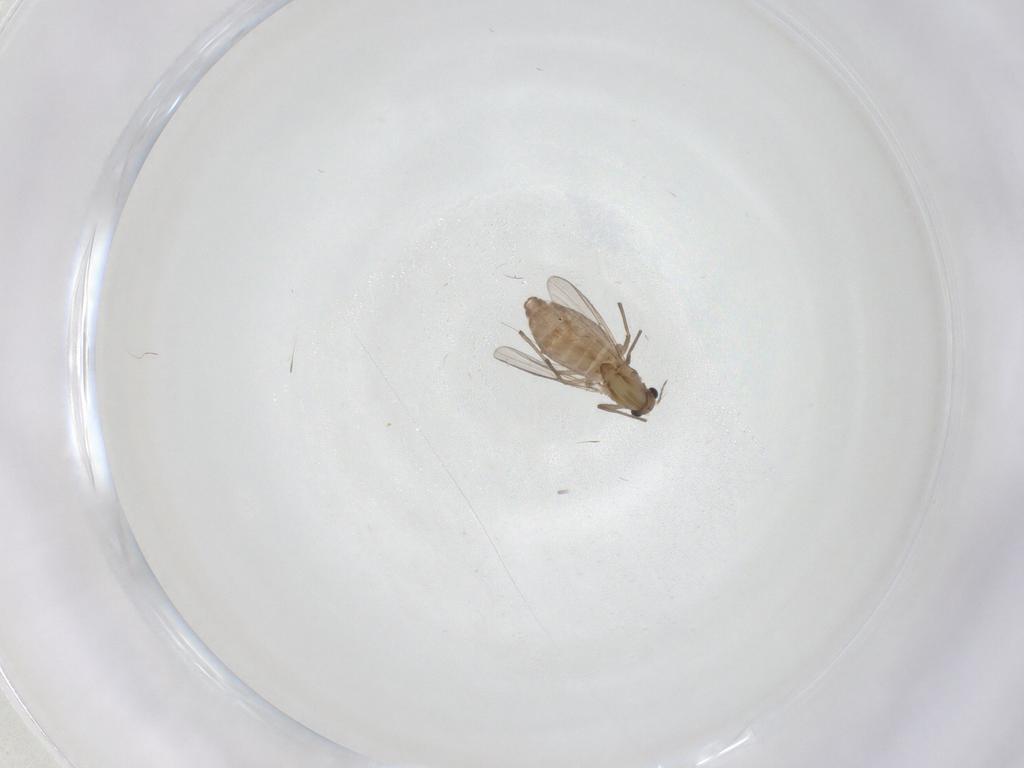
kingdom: Animalia
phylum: Arthropoda
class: Insecta
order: Diptera
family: Chironomidae
